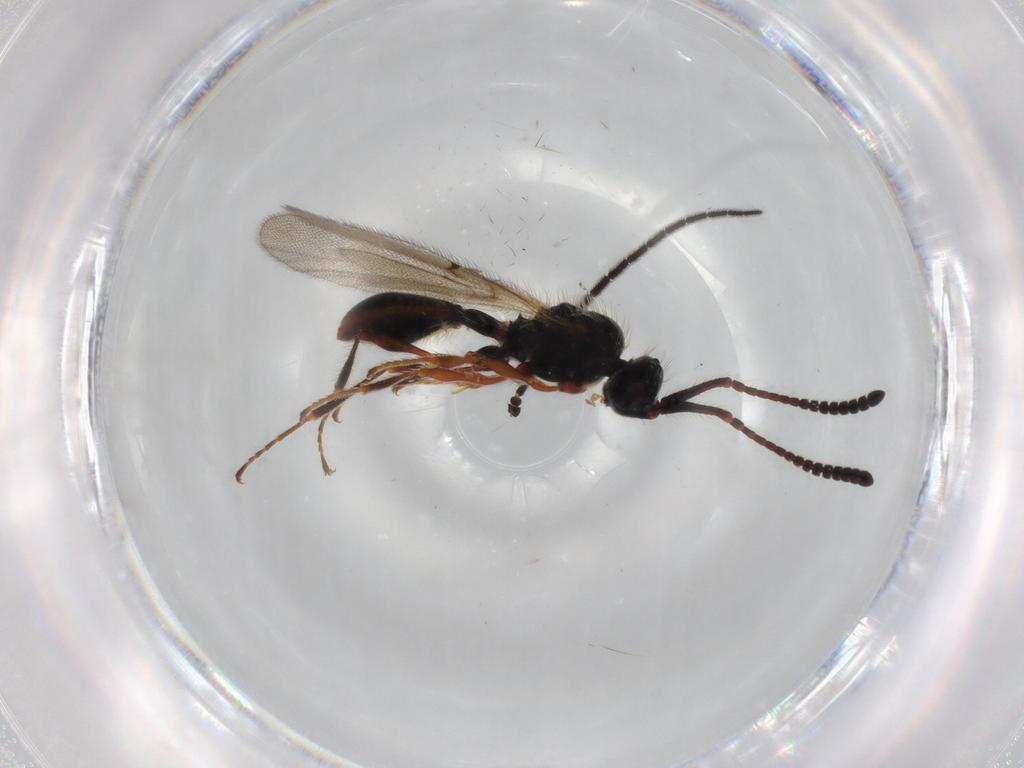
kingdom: Animalia
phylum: Arthropoda
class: Insecta
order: Hymenoptera
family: Diapriidae
